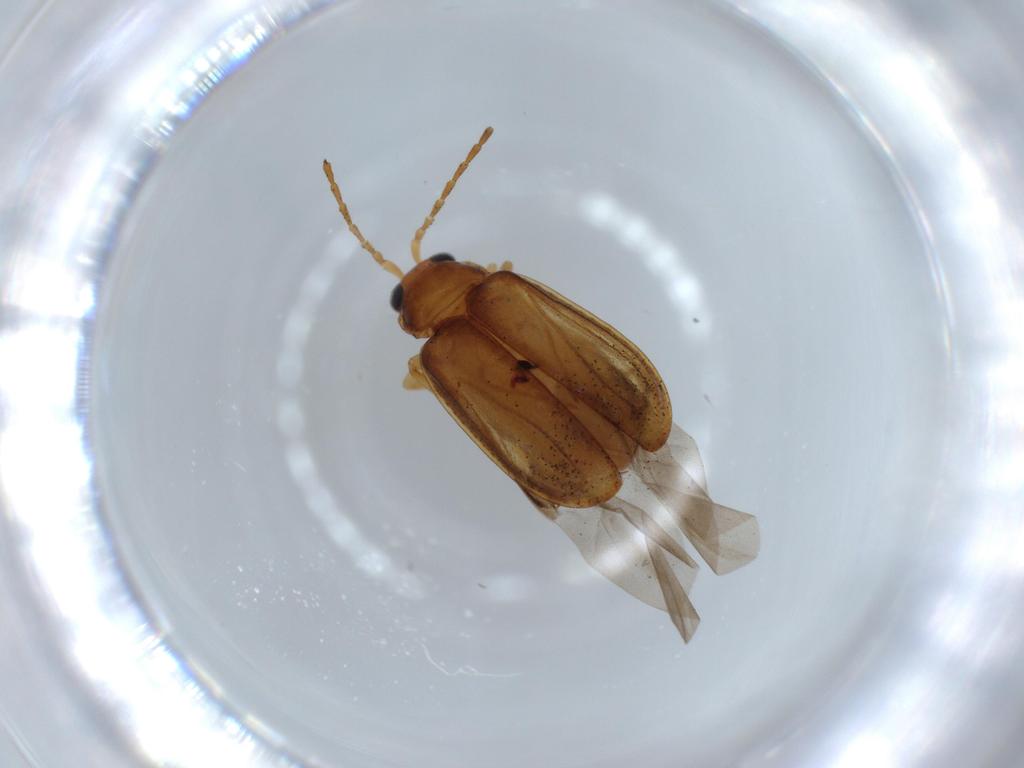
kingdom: Animalia
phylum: Arthropoda
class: Insecta
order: Coleoptera
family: Chrysomelidae
